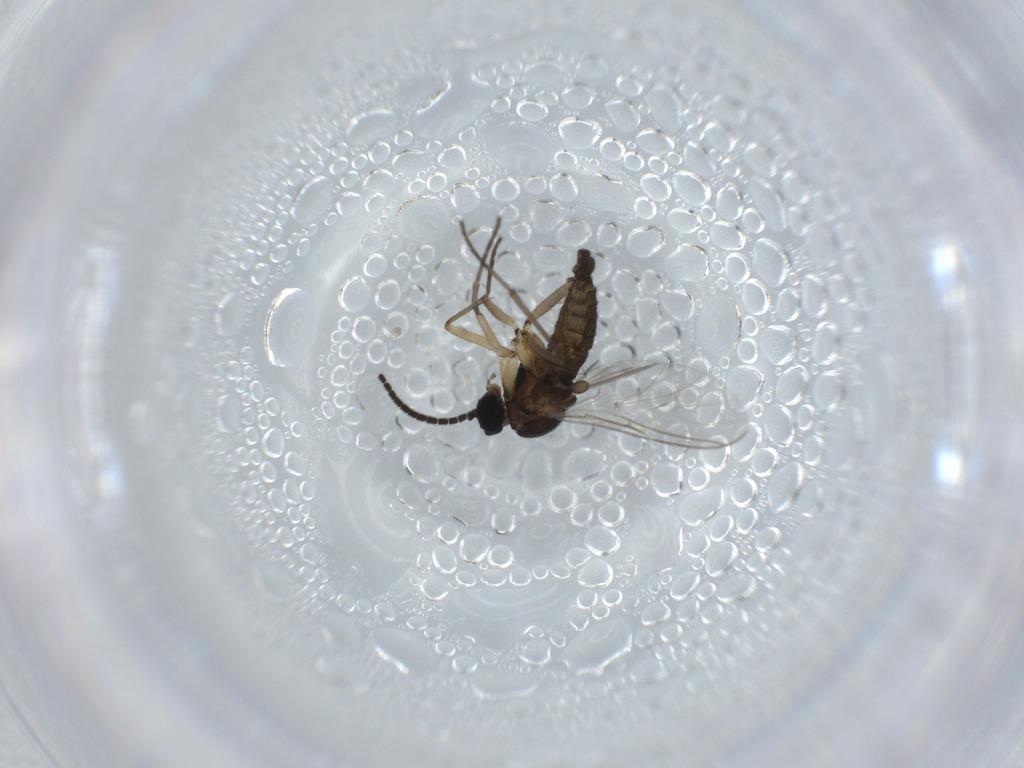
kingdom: Animalia
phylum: Arthropoda
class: Insecta
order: Diptera
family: Sciaridae
